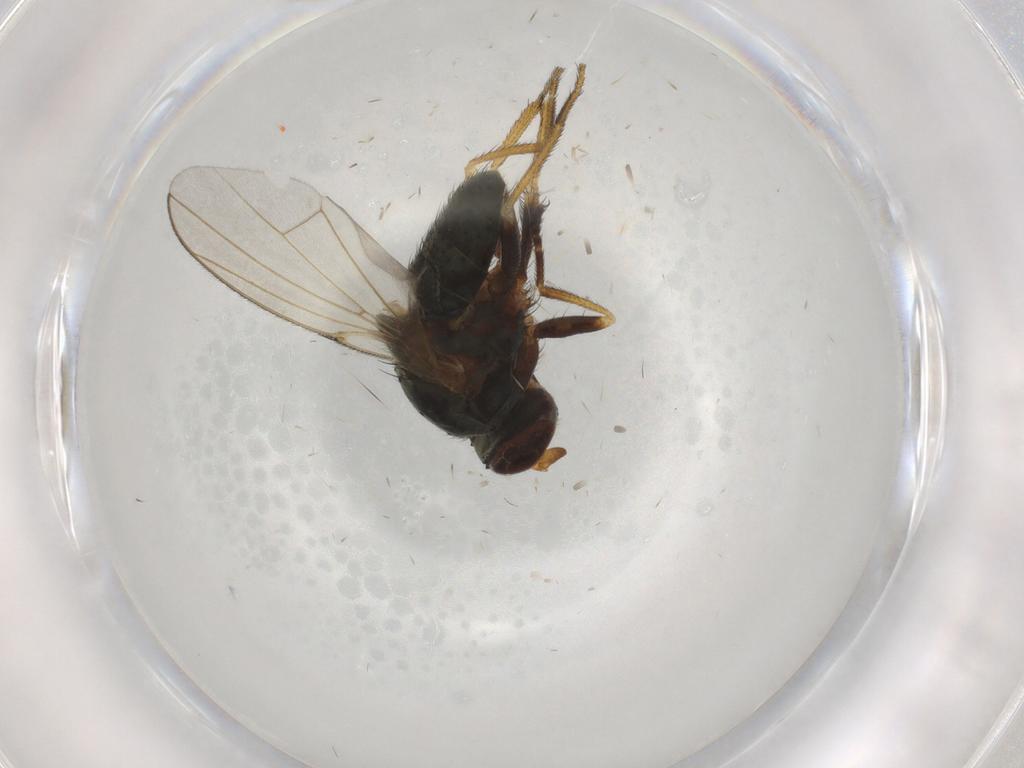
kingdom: Animalia
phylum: Arthropoda
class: Insecta
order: Diptera
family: Ephydridae
